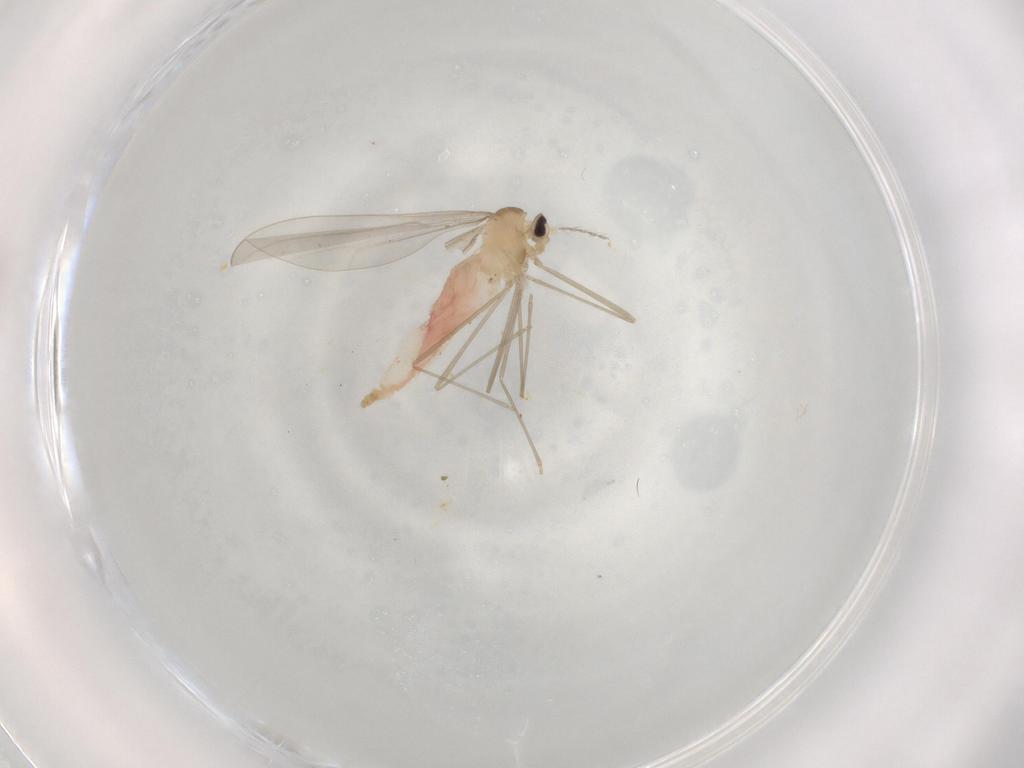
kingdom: Animalia
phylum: Arthropoda
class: Insecta
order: Diptera
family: Cecidomyiidae
